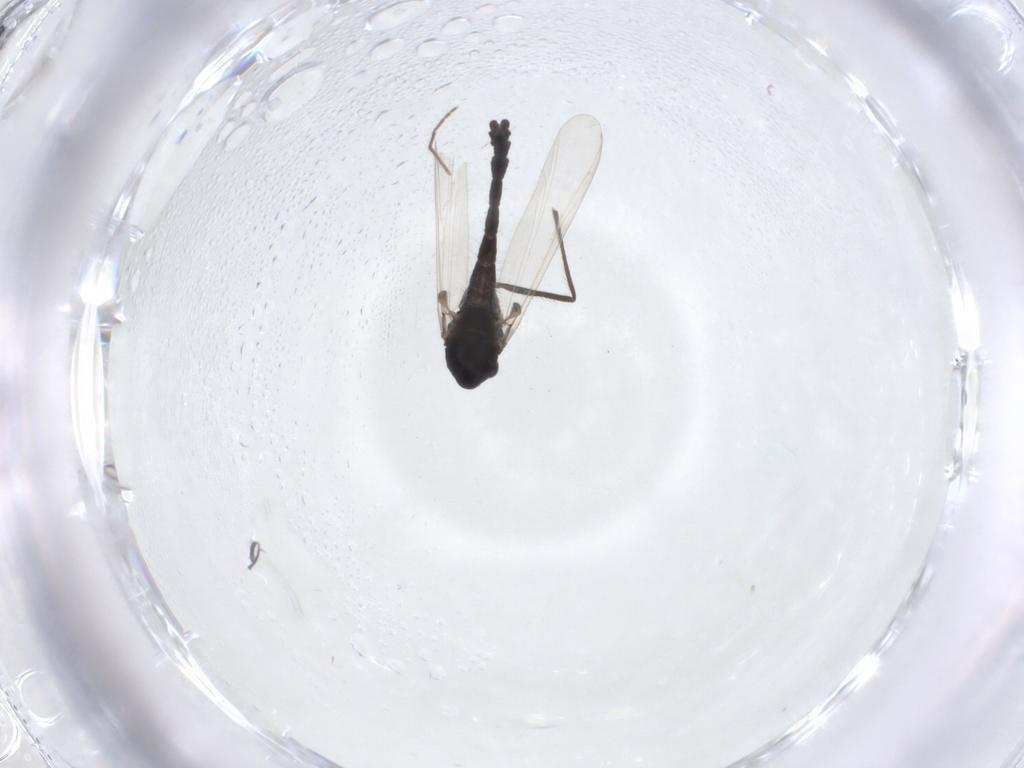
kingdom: Animalia
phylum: Arthropoda
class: Insecta
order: Diptera
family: Chironomidae
